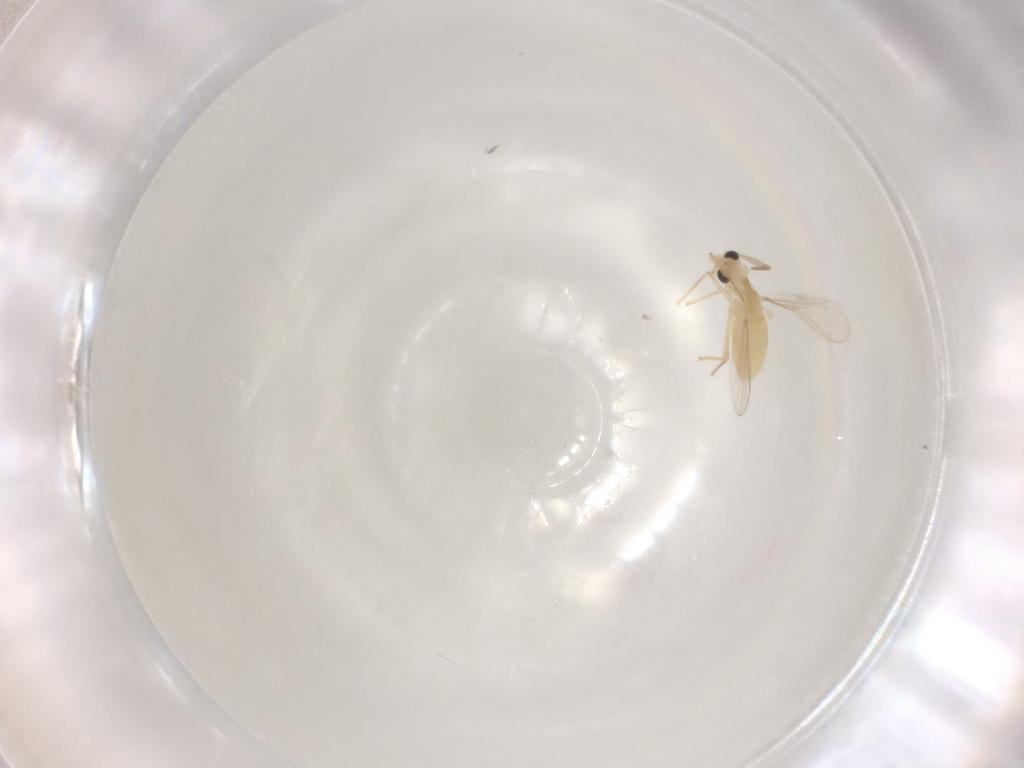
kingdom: Animalia
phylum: Arthropoda
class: Insecta
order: Diptera
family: Chironomidae
